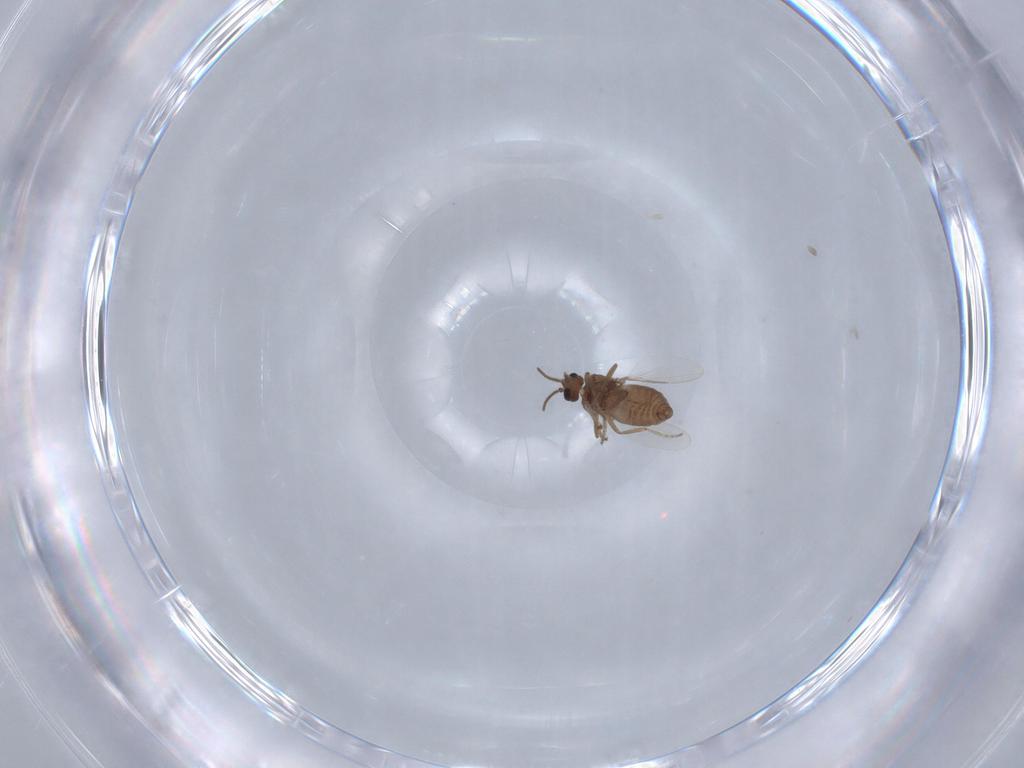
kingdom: Animalia
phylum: Arthropoda
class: Insecta
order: Diptera
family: Ceratopogonidae
